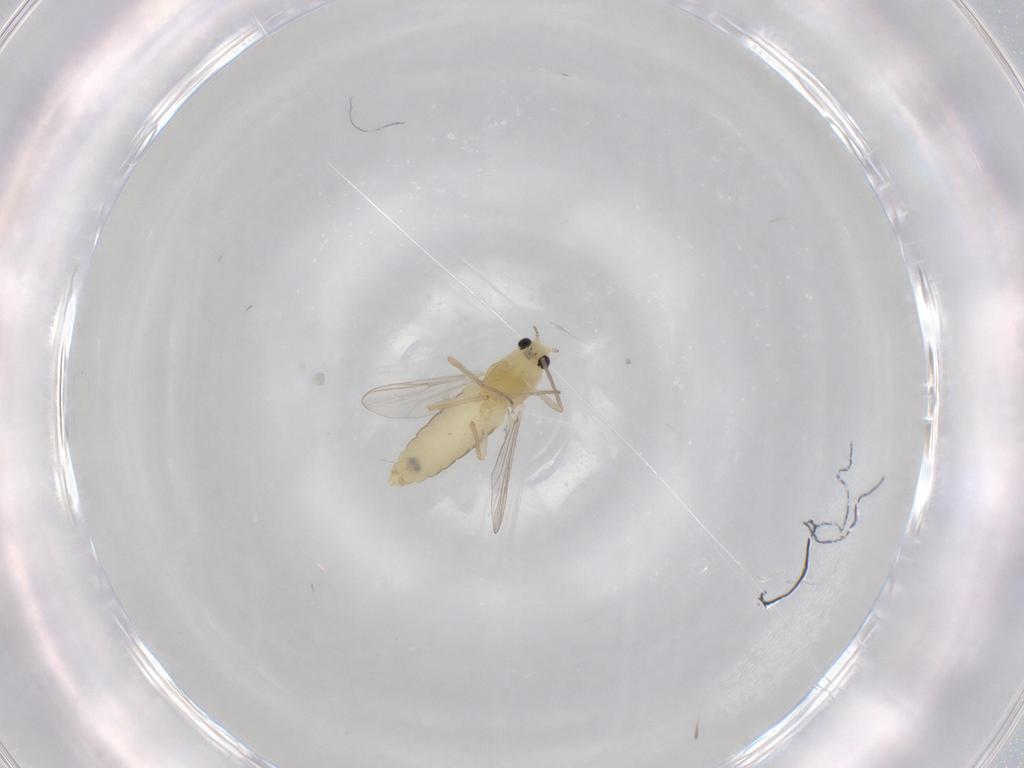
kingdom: Animalia
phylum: Arthropoda
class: Insecta
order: Diptera
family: Chironomidae
